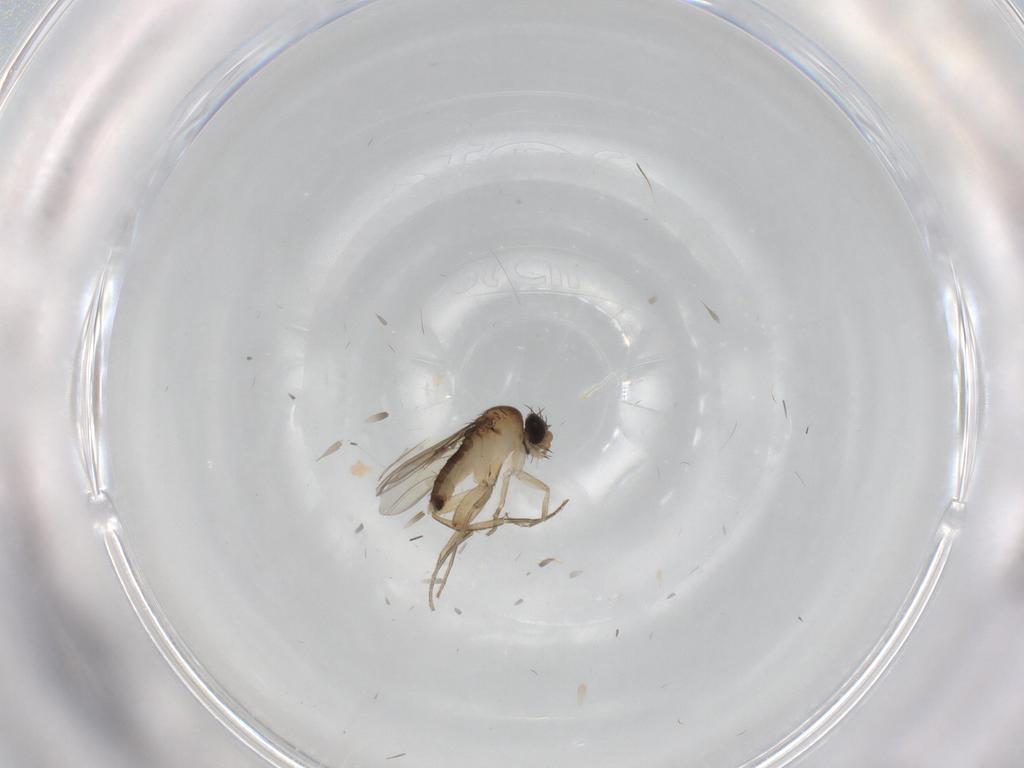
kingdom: Animalia
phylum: Arthropoda
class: Insecta
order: Diptera
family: Phoridae
